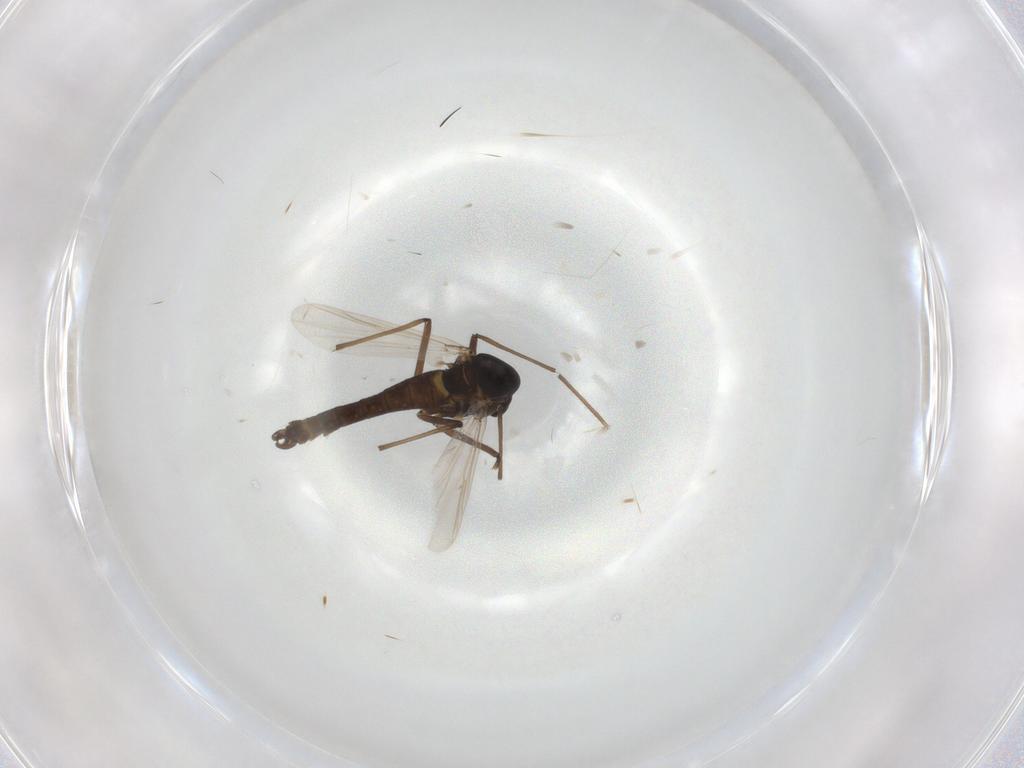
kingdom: Animalia
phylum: Arthropoda
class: Insecta
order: Diptera
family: Chironomidae
